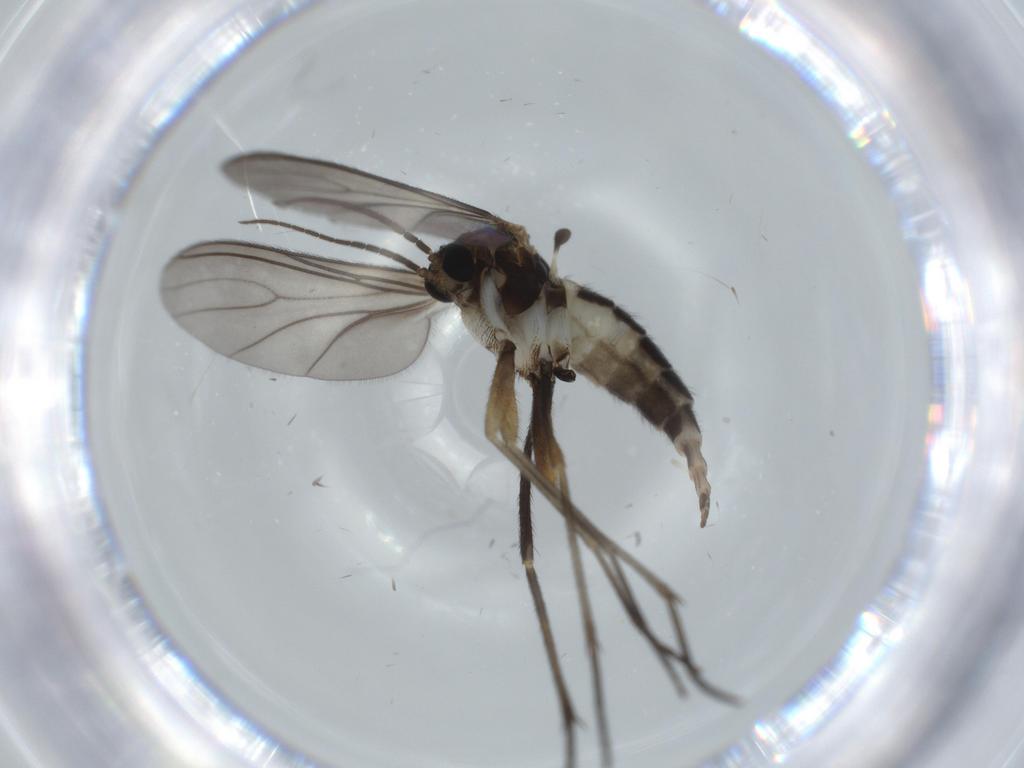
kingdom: Animalia
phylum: Arthropoda
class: Insecta
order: Diptera
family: Sciaridae
